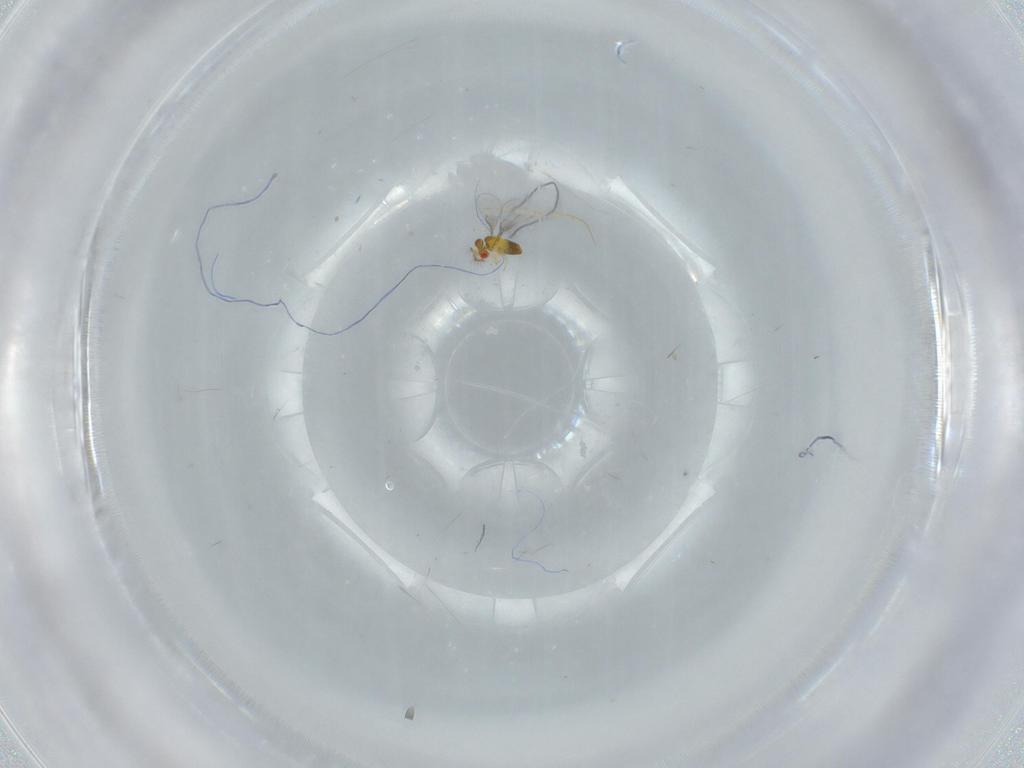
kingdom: Animalia
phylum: Arthropoda
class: Insecta
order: Hymenoptera
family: Trichogrammatidae
